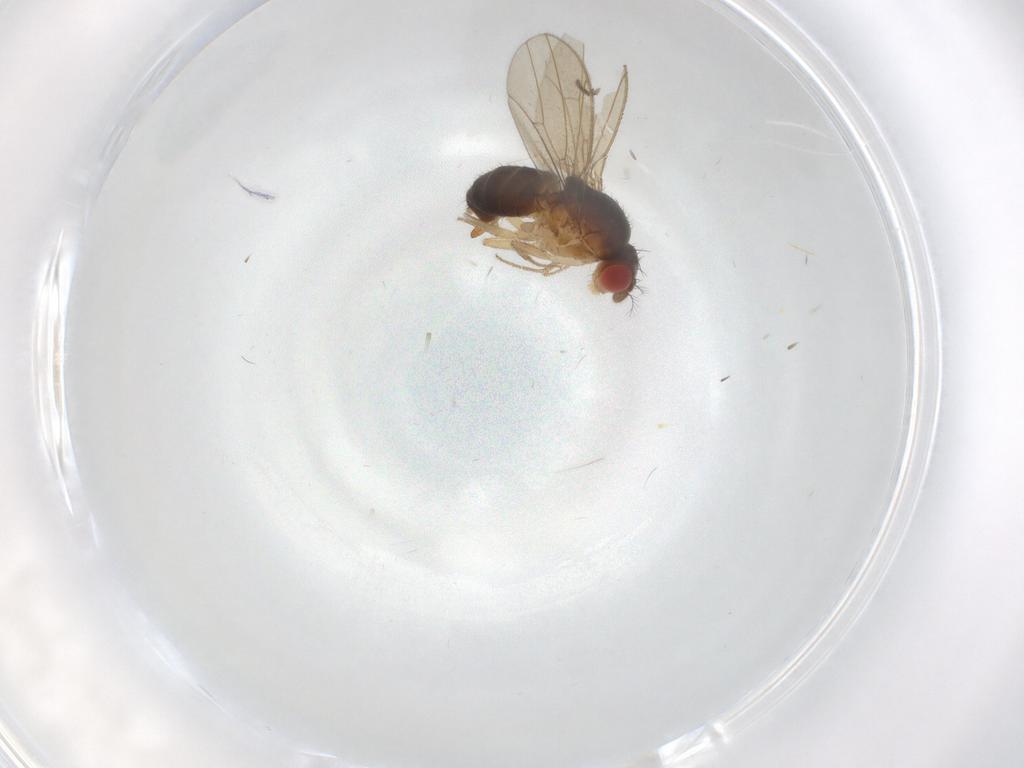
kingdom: Animalia
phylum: Arthropoda
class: Insecta
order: Diptera
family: Drosophilidae
